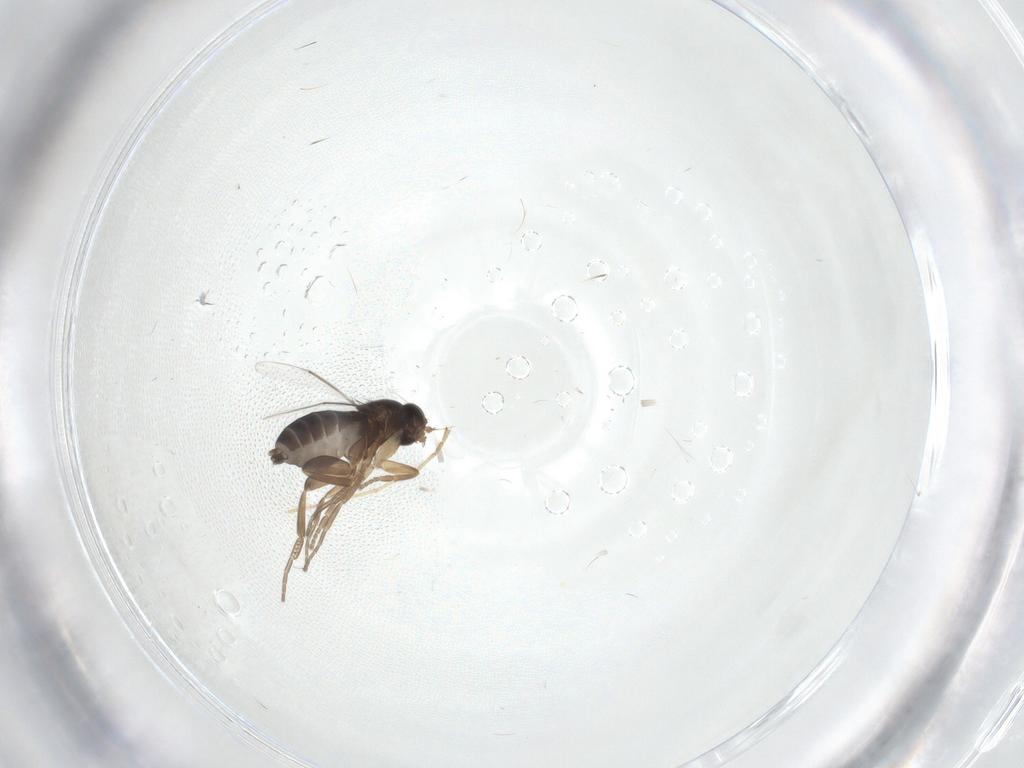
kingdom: Animalia
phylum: Arthropoda
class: Insecta
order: Diptera
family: Phoridae
